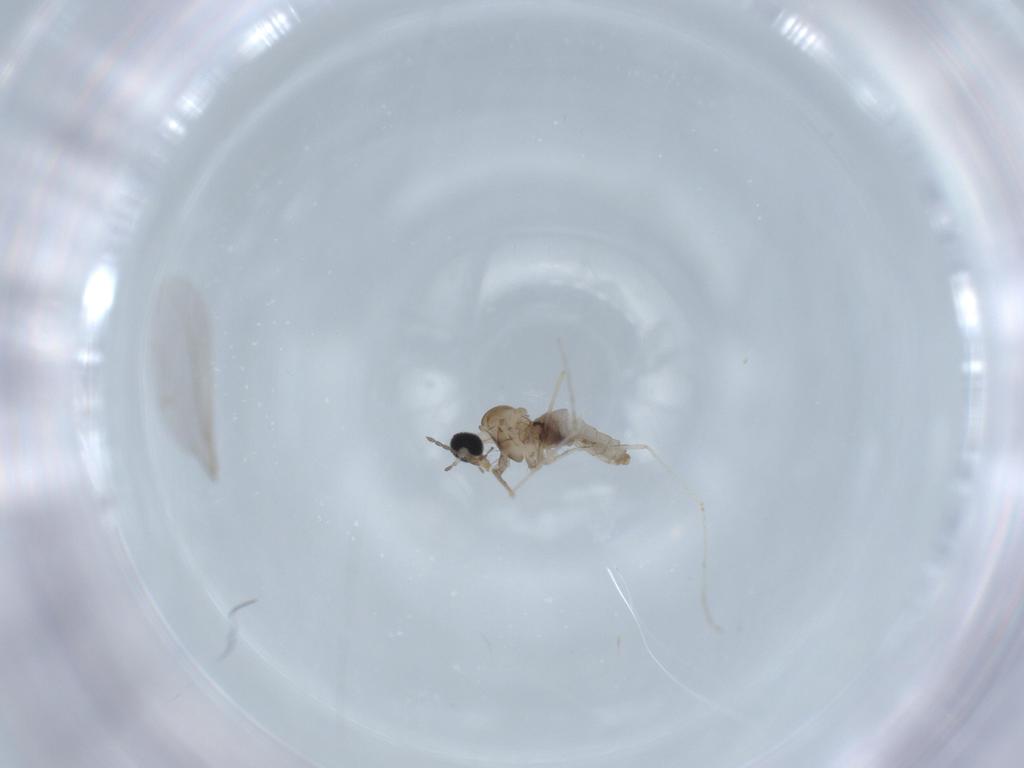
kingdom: Animalia
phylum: Arthropoda
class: Insecta
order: Diptera
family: Cecidomyiidae
